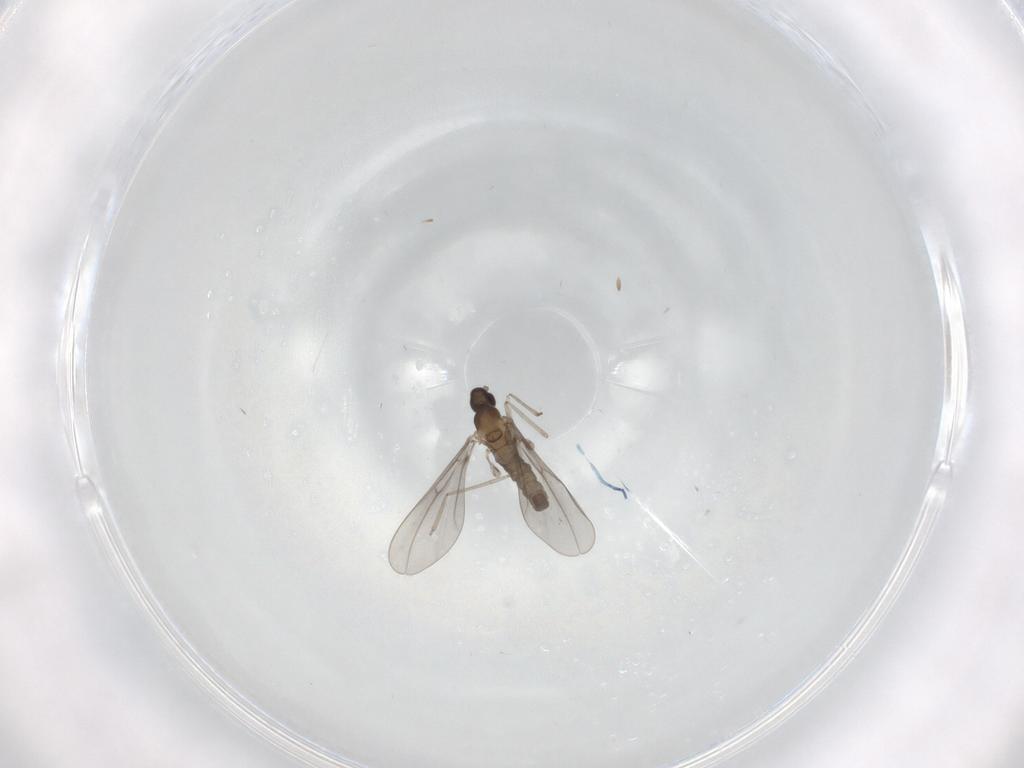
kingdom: Animalia
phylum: Arthropoda
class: Insecta
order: Diptera
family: Cecidomyiidae
